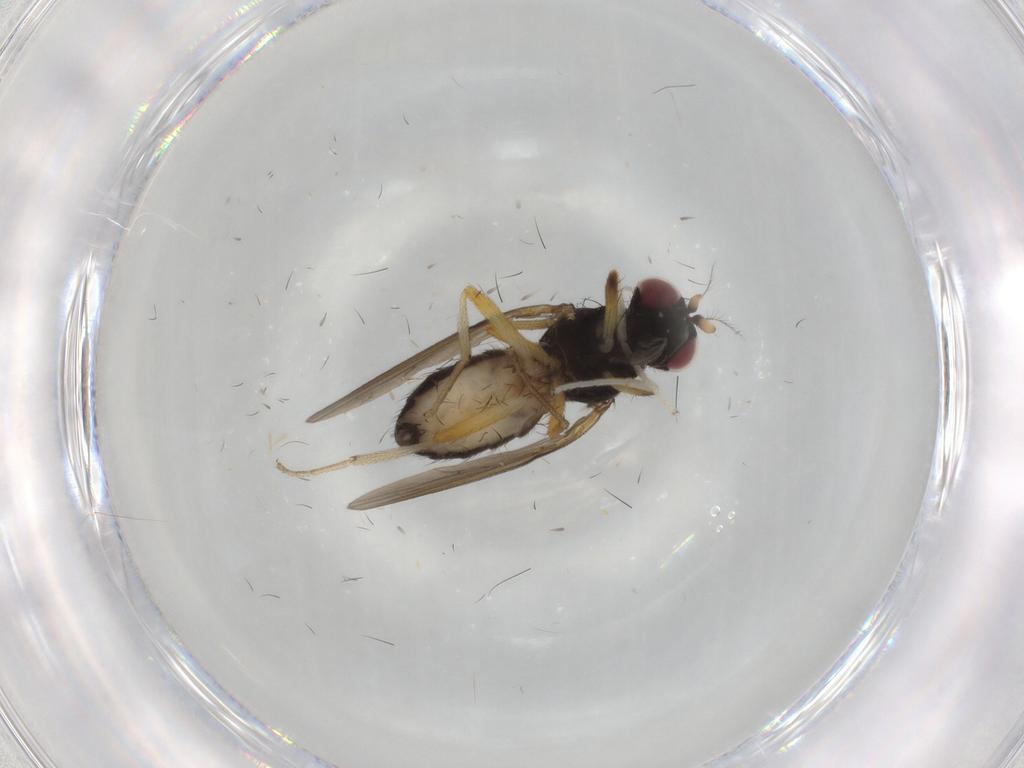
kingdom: Animalia
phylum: Arthropoda
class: Insecta
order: Diptera
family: Lauxaniidae
